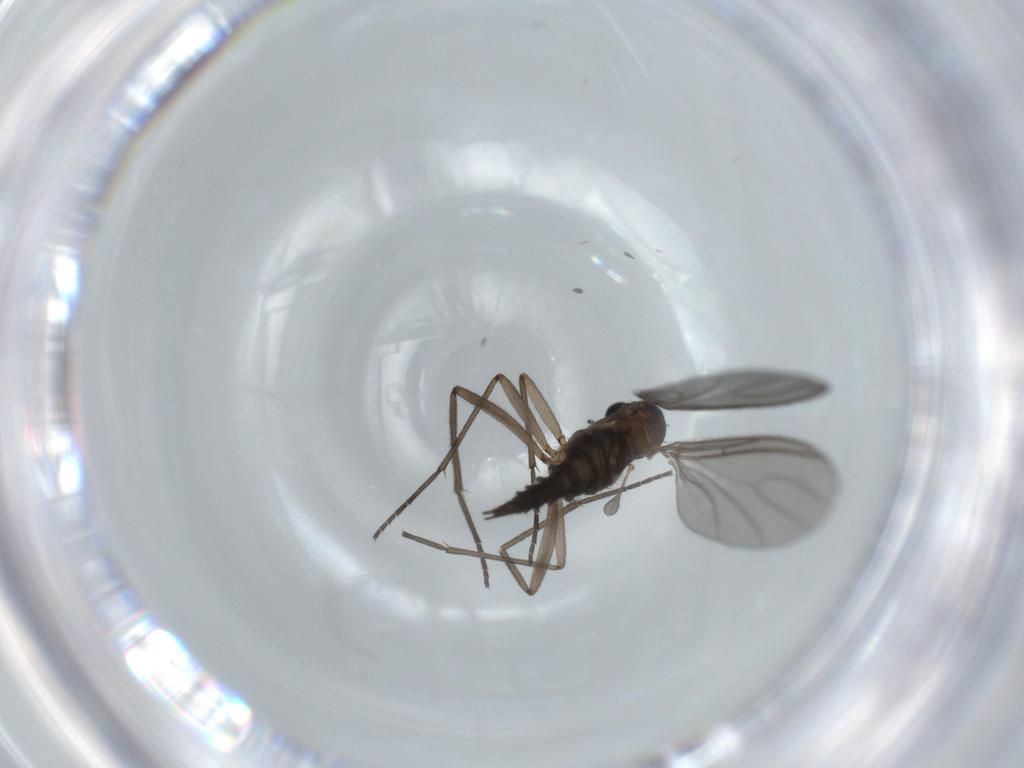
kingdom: Animalia
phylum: Arthropoda
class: Insecta
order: Diptera
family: Sciaridae
